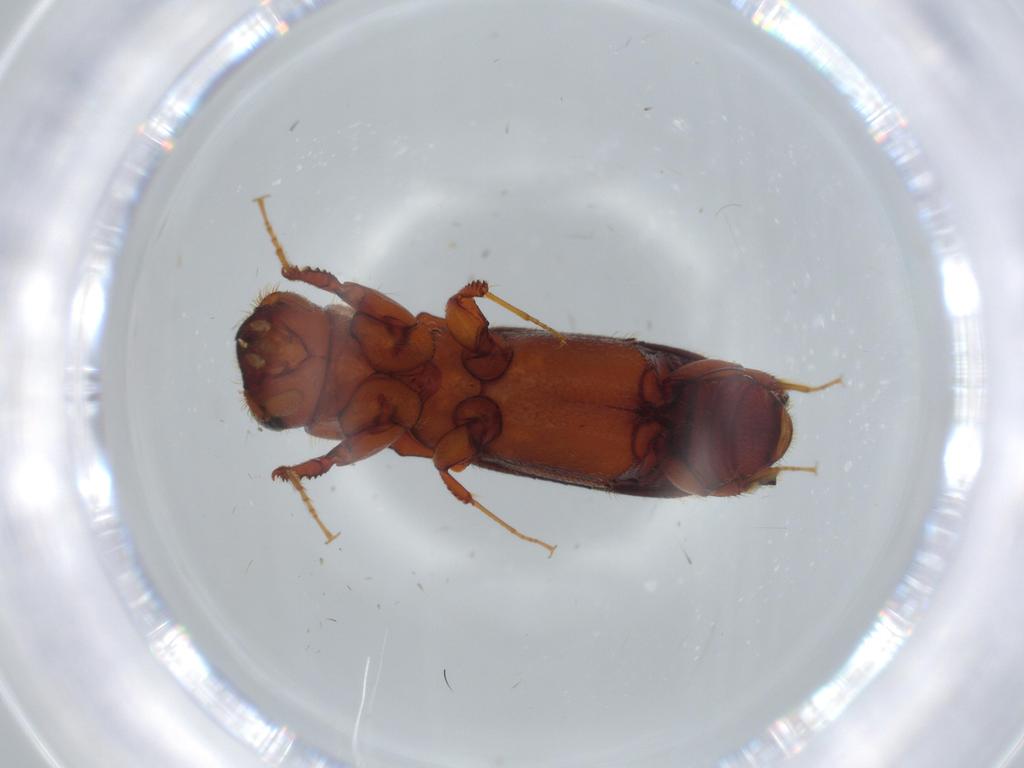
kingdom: Animalia
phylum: Arthropoda
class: Insecta
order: Coleoptera
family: Curculionidae
